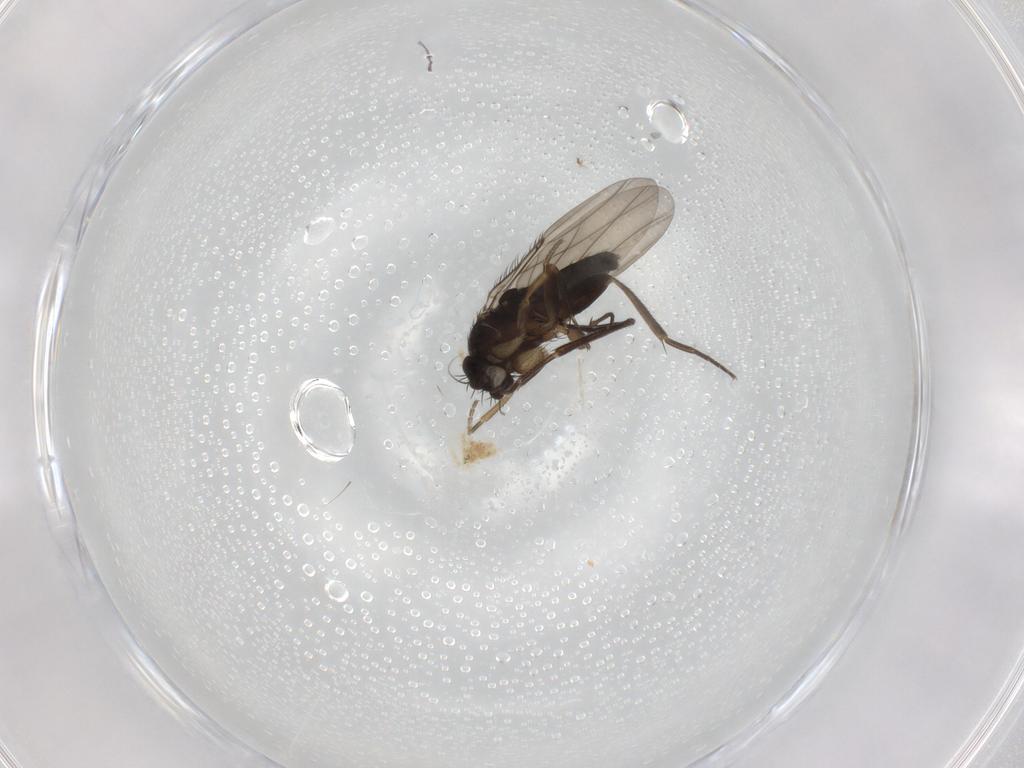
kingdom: Animalia
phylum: Arthropoda
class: Insecta
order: Diptera
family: Phoridae
